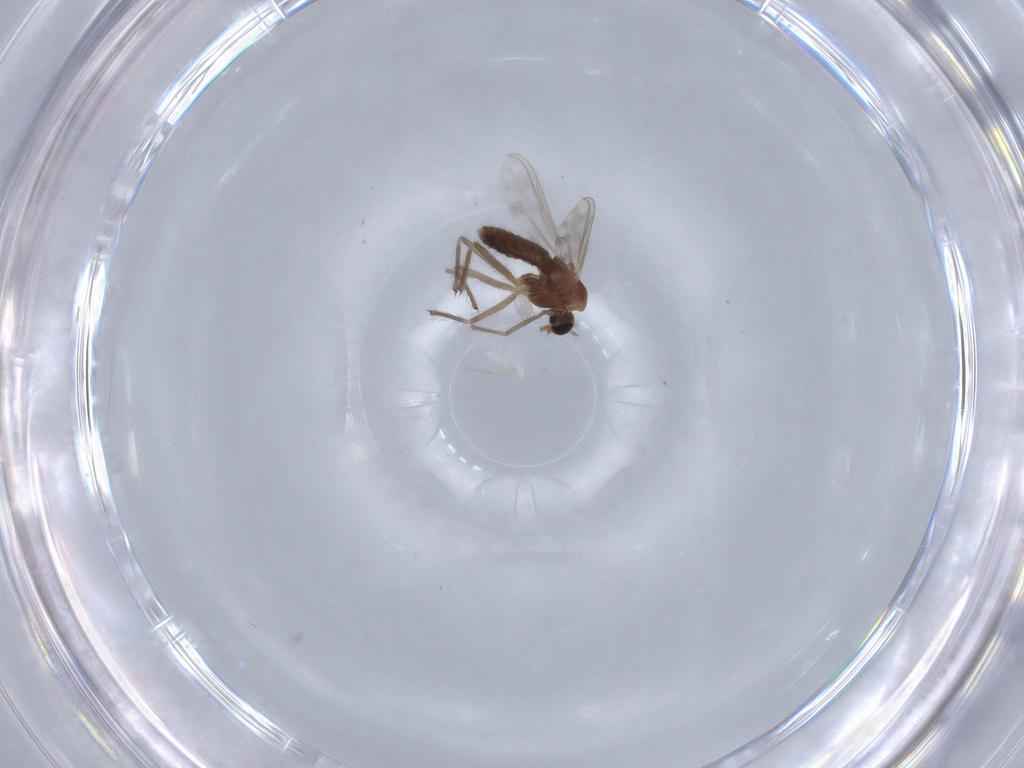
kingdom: Animalia
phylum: Arthropoda
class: Insecta
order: Diptera
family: Chironomidae
